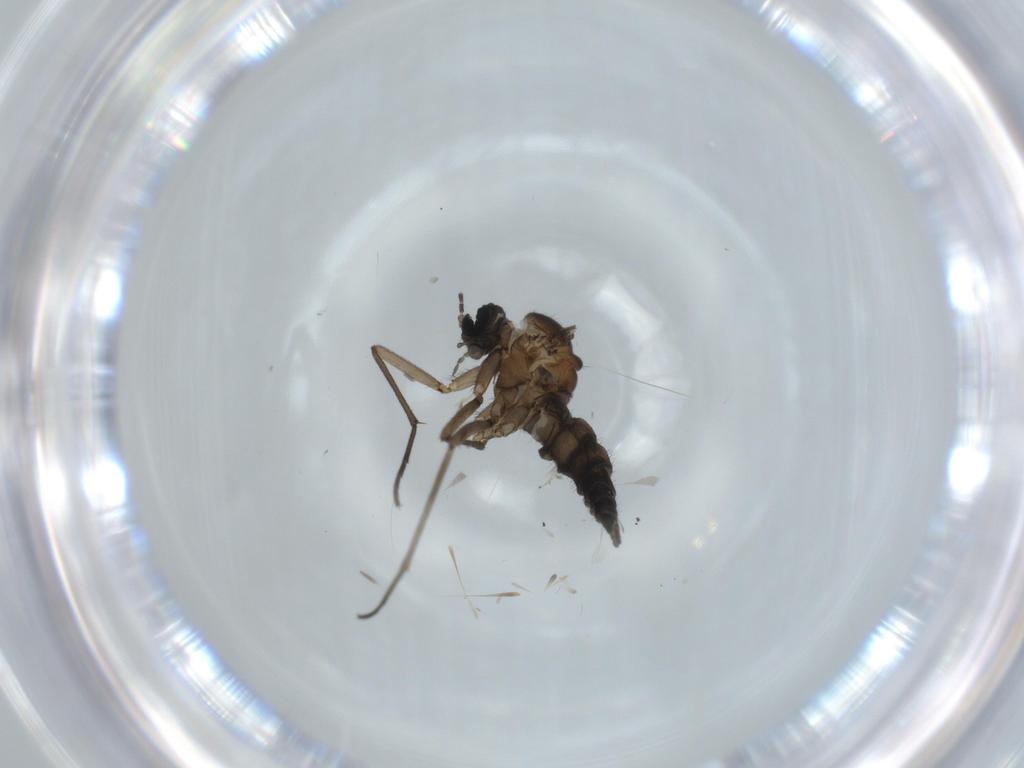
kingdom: Animalia
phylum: Arthropoda
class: Insecta
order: Diptera
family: Sciaridae
